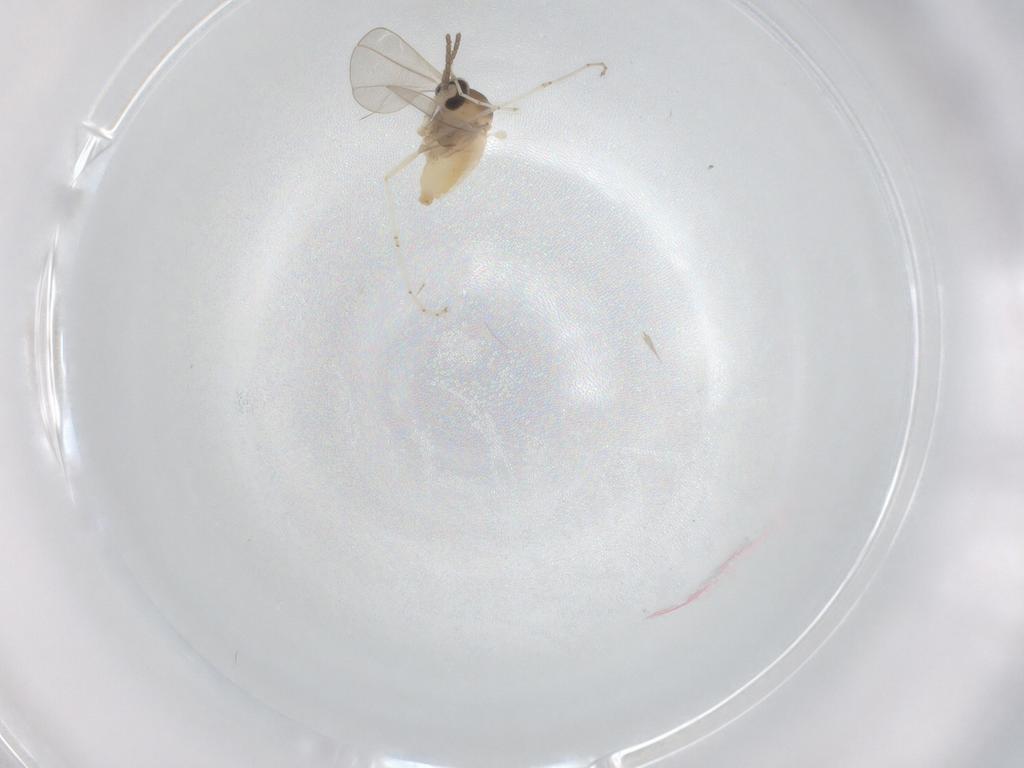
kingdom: Animalia
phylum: Arthropoda
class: Insecta
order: Diptera
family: Cecidomyiidae
